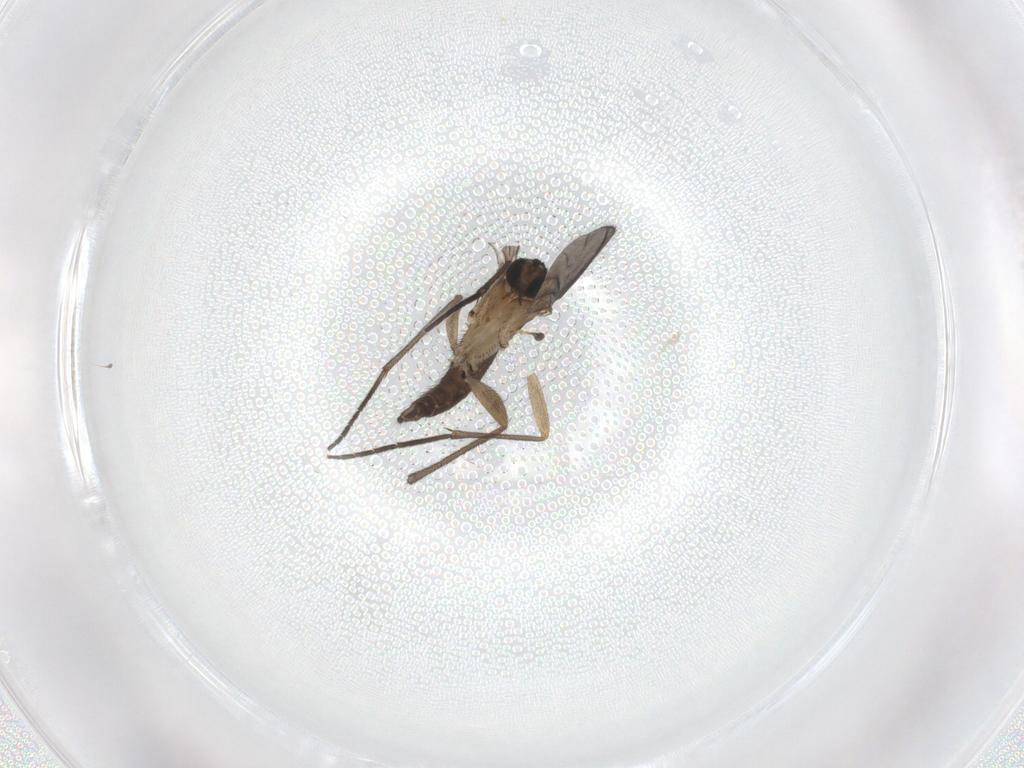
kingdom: Animalia
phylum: Arthropoda
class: Insecta
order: Diptera
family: Sciaridae
